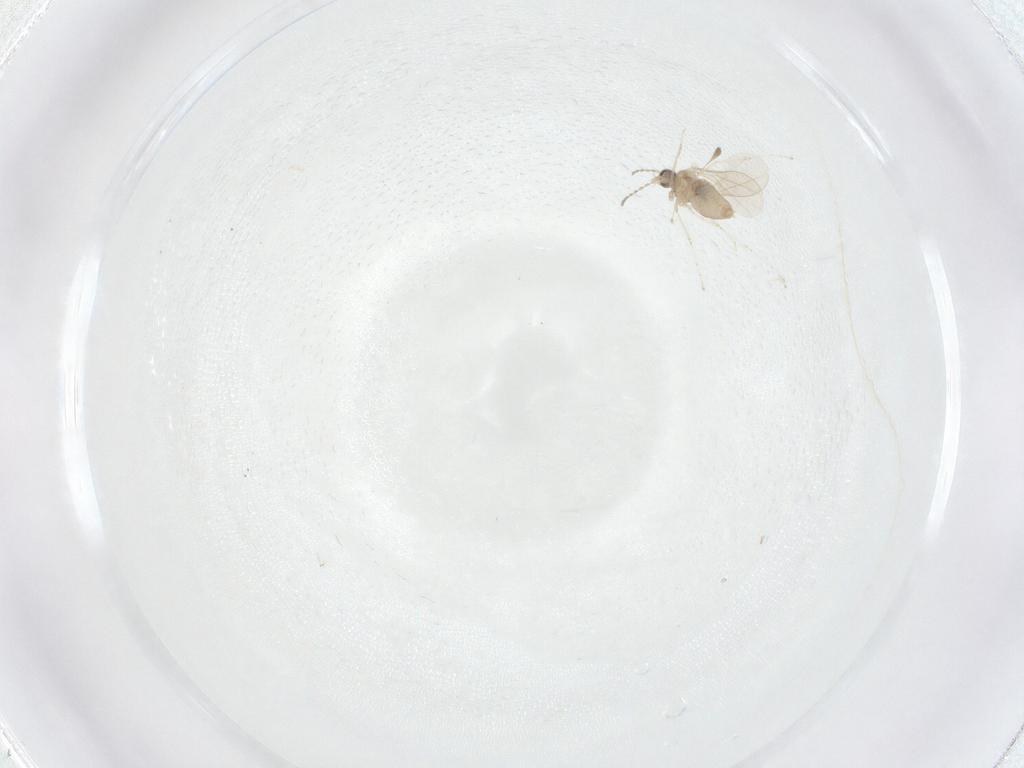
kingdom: Animalia
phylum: Arthropoda
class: Insecta
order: Diptera
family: Cecidomyiidae
